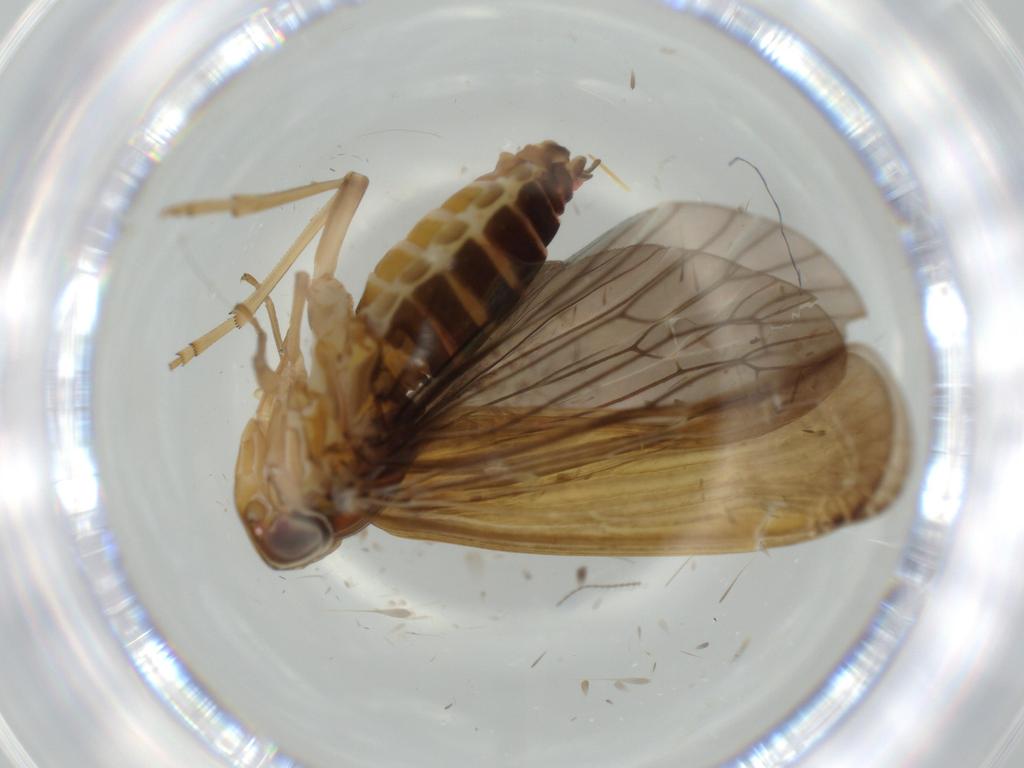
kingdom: Animalia
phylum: Arthropoda
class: Insecta
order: Hemiptera
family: Achilidae
